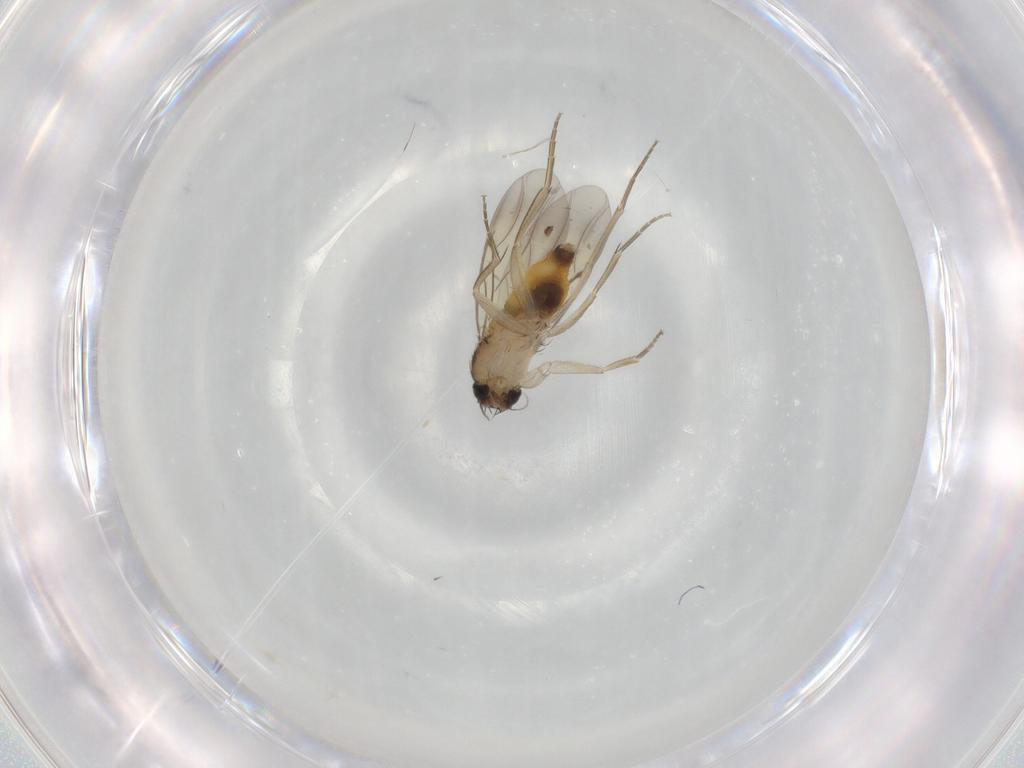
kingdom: Animalia
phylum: Arthropoda
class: Insecta
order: Diptera
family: Phoridae
